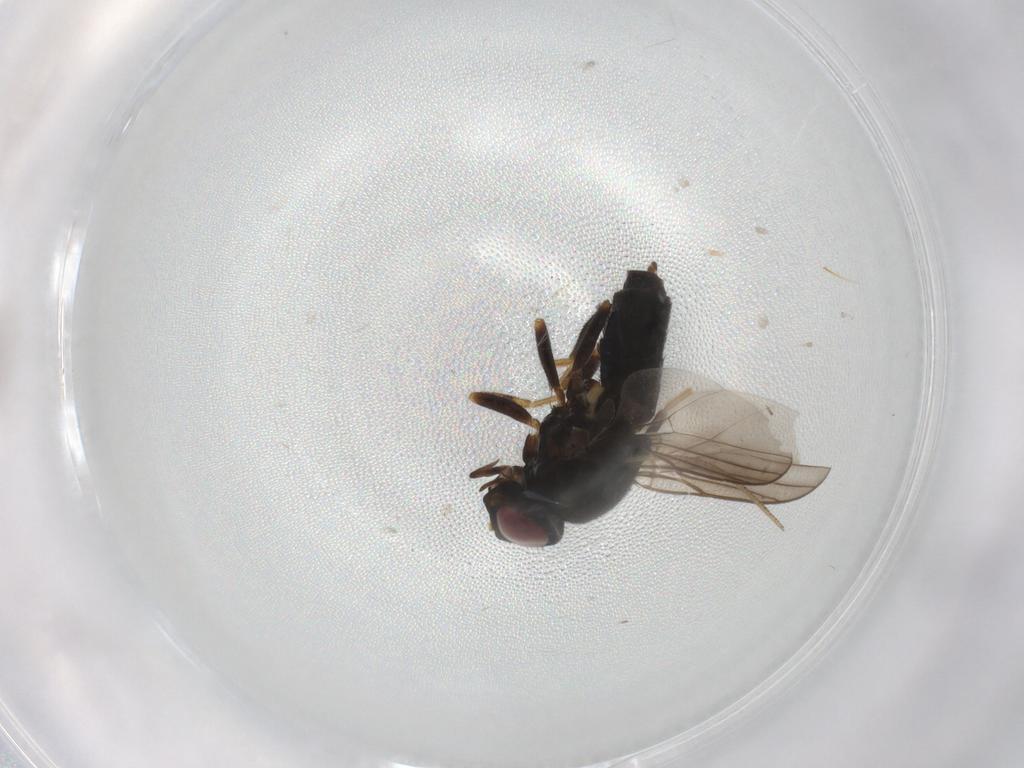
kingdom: Animalia
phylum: Arthropoda
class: Insecta
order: Diptera
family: Chloropidae
